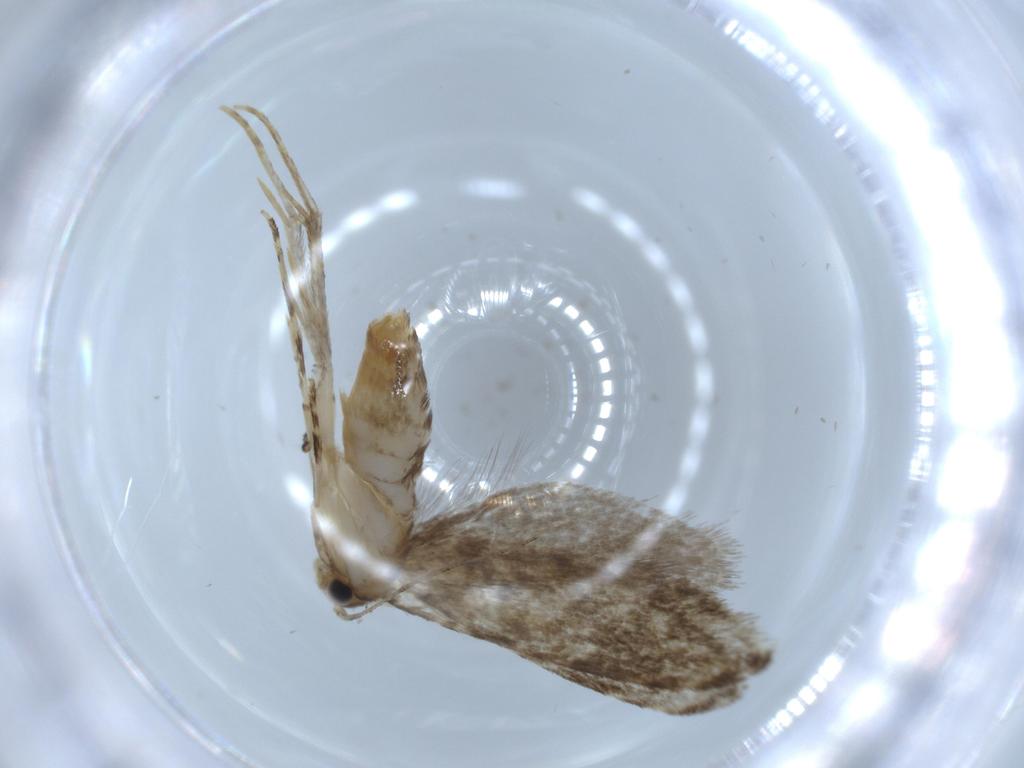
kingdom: Animalia
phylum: Arthropoda
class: Insecta
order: Lepidoptera
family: Tineidae
